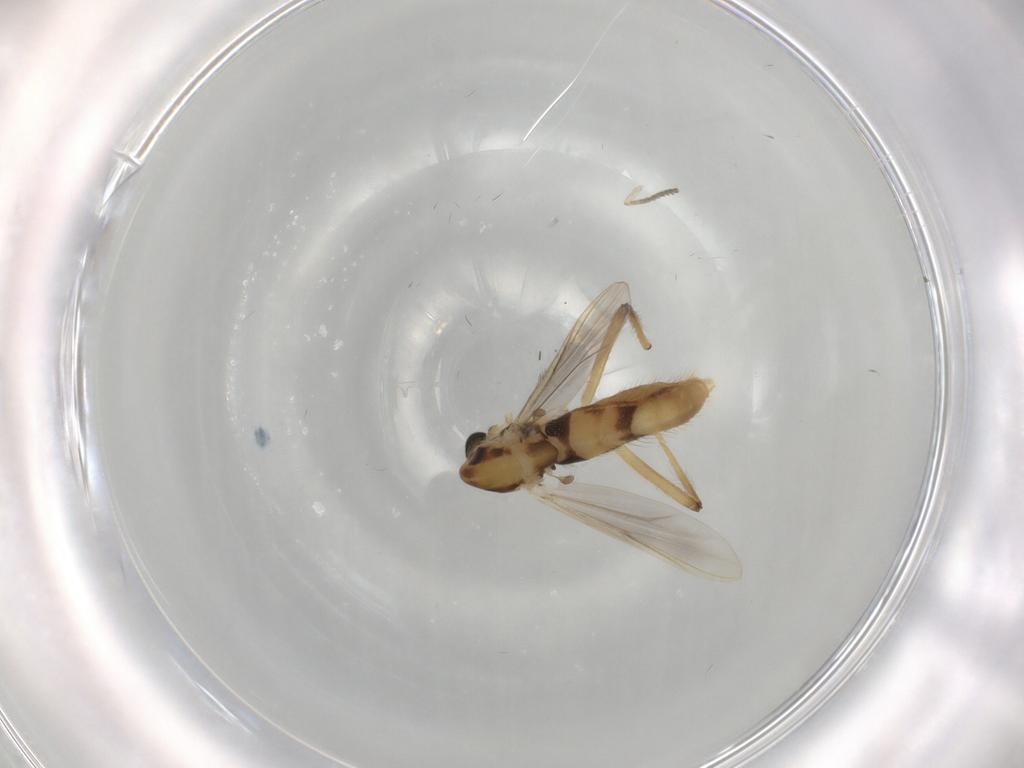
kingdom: Animalia
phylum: Arthropoda
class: Insecta
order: Diptera
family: Chironomidae
